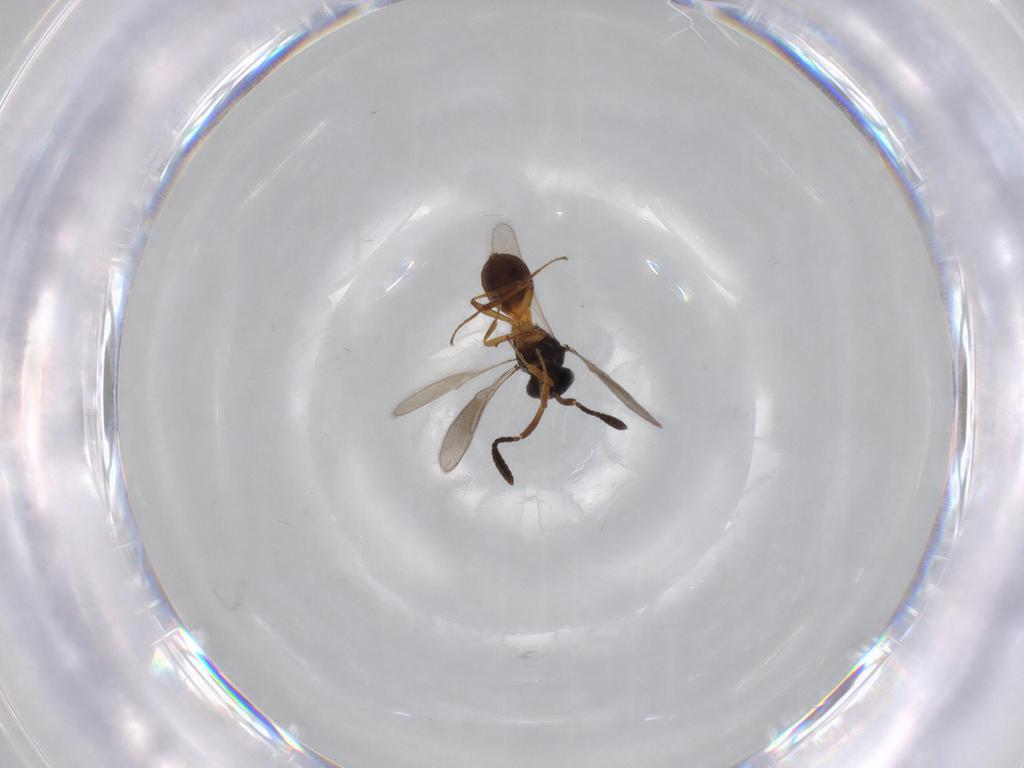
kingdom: Animalia
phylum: Arthropoda
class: Insecta
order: Hymenoptera
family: Scelionidae
